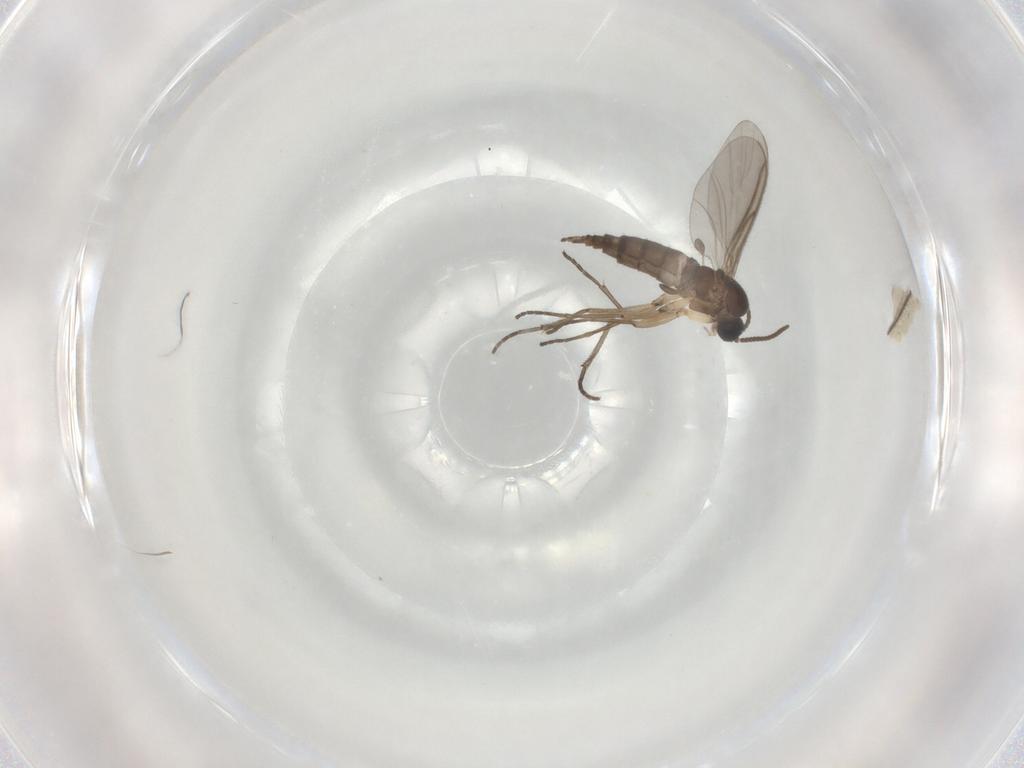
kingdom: Animalia
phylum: Arthropoda
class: Insecta
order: Diptera
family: Sciaridae
